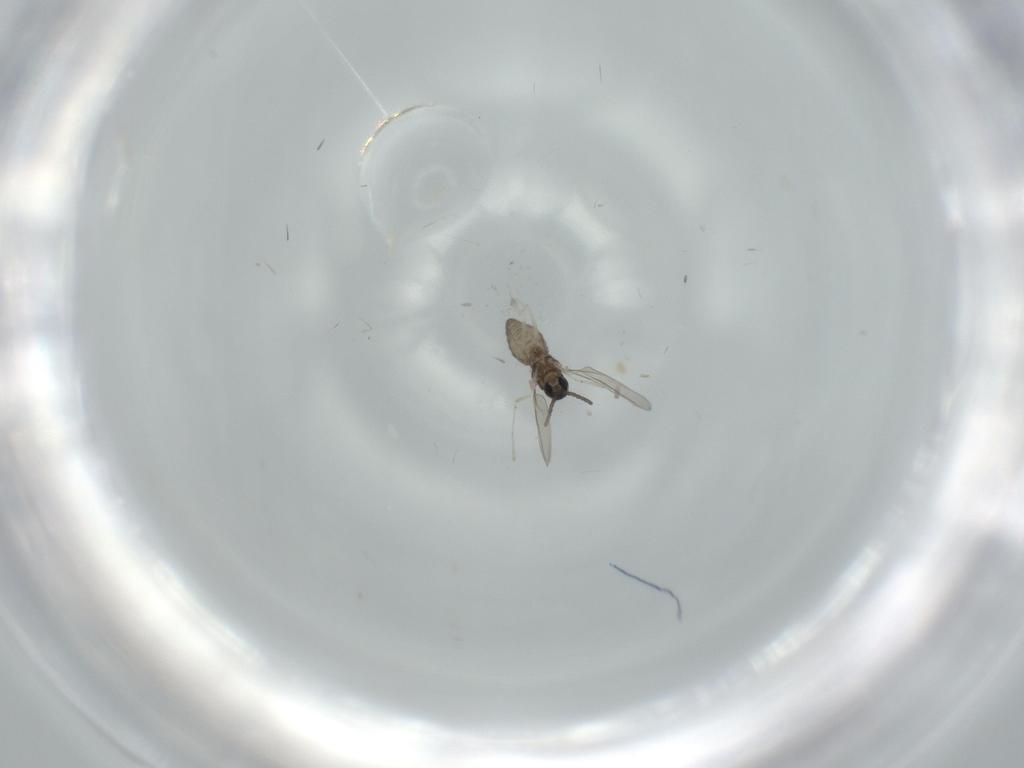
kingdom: Animalia
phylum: Arthropoda
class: Insecta
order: Diptera
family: Cecidomyiidae
